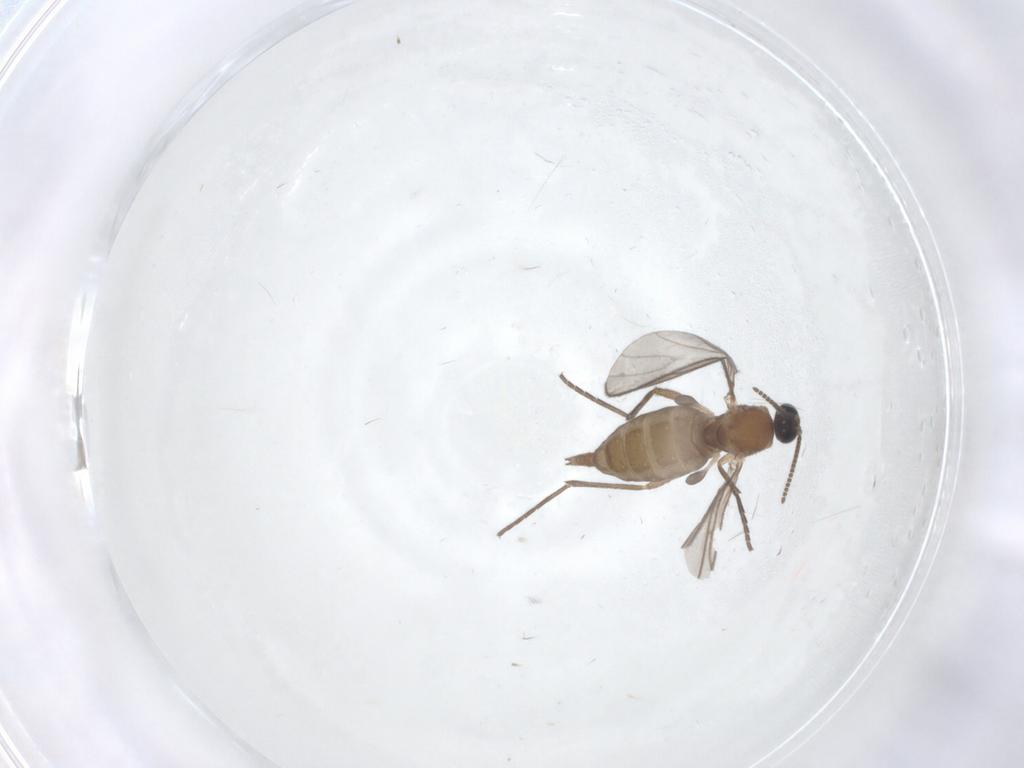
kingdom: Animalia
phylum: Arthropoda
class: Insecta
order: Diptera
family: Sciaridae
